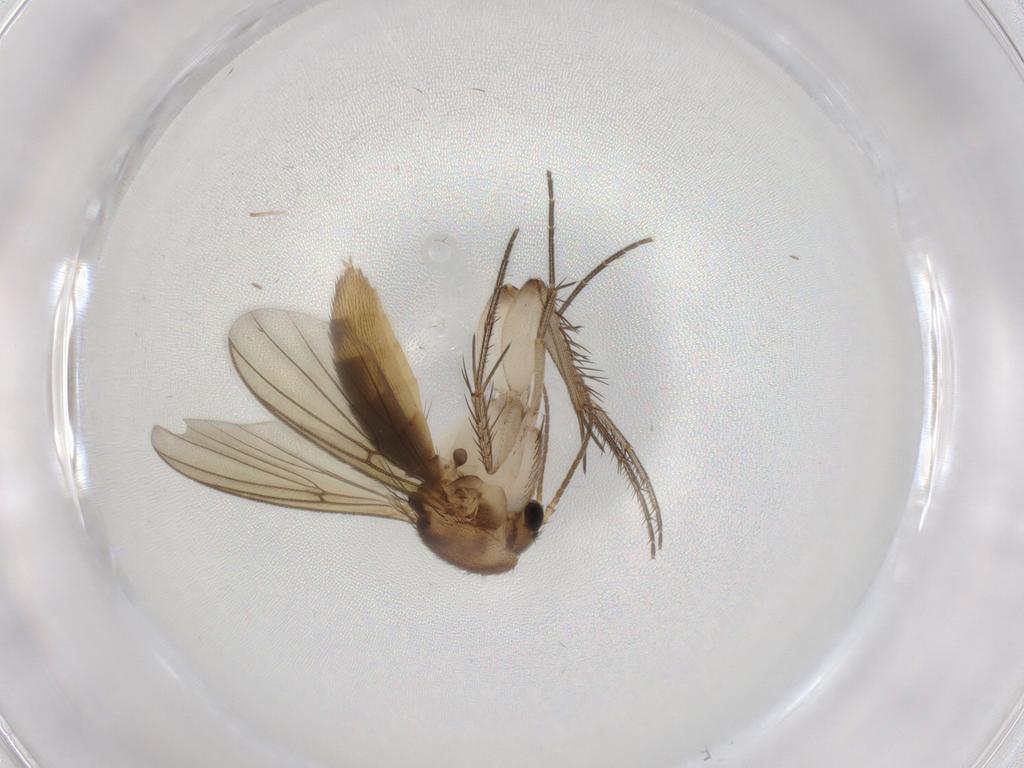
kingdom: Animalia
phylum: Arthropoda
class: Insecta
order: Diptera
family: Mycetophilidae
